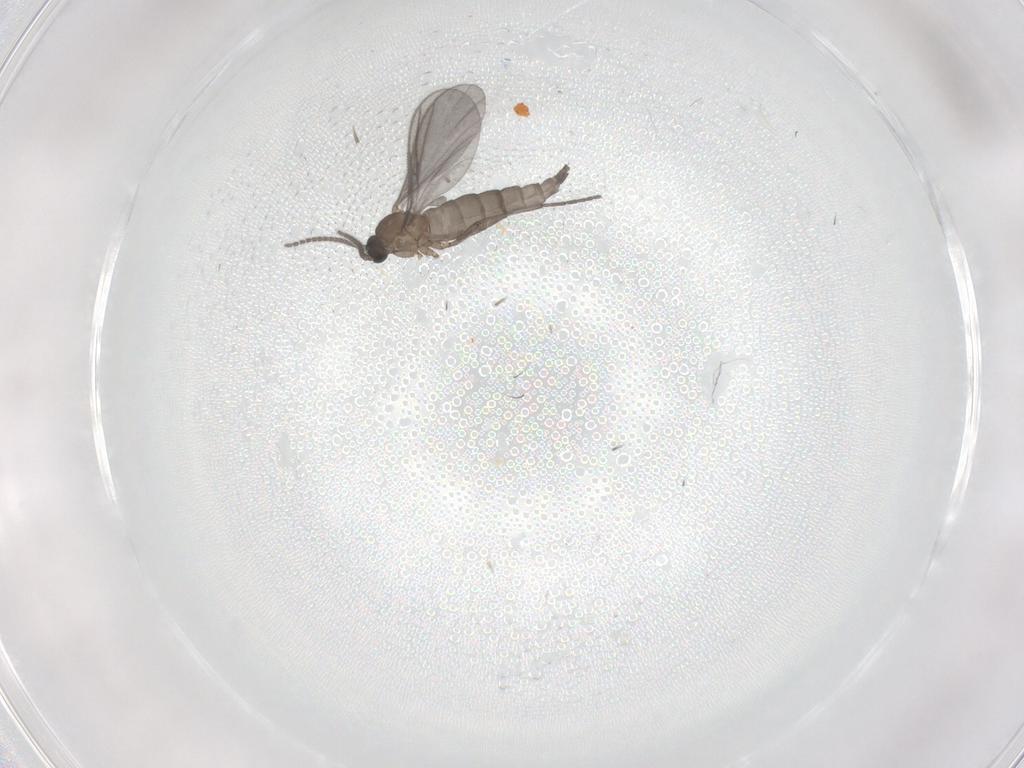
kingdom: Animalia
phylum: Arthropoda
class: Insecta
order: Diptera
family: Sciaridae
